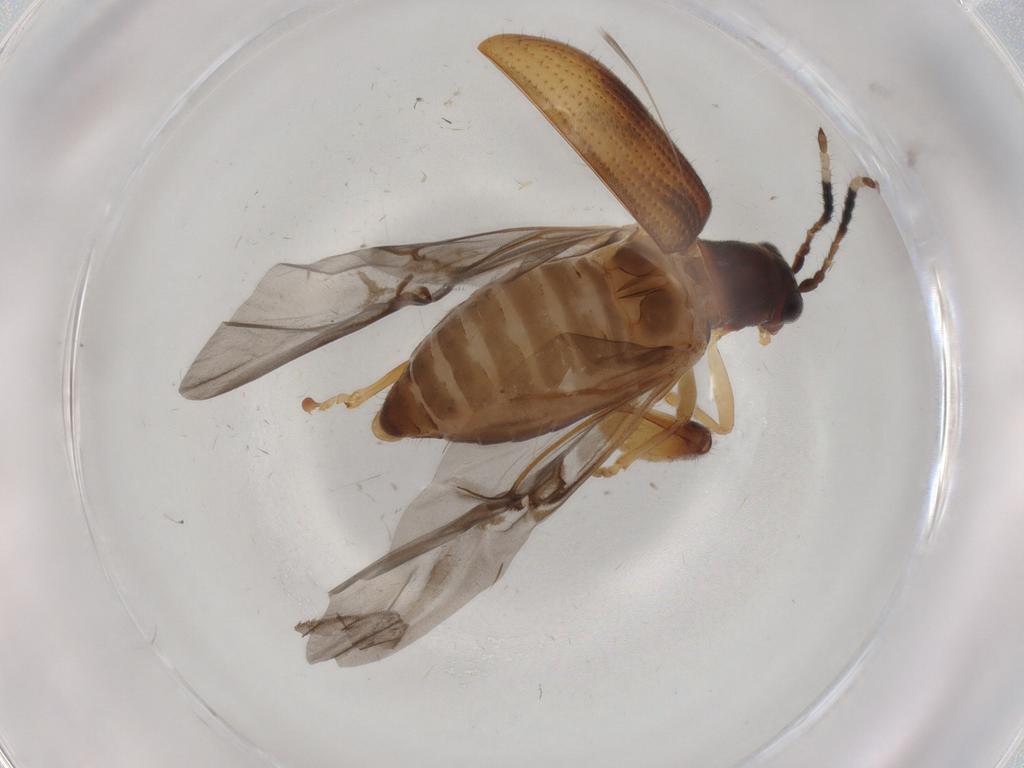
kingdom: Animalia
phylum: Arthropoda
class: Insecta
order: Coleoptera
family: Chrysomelidae
